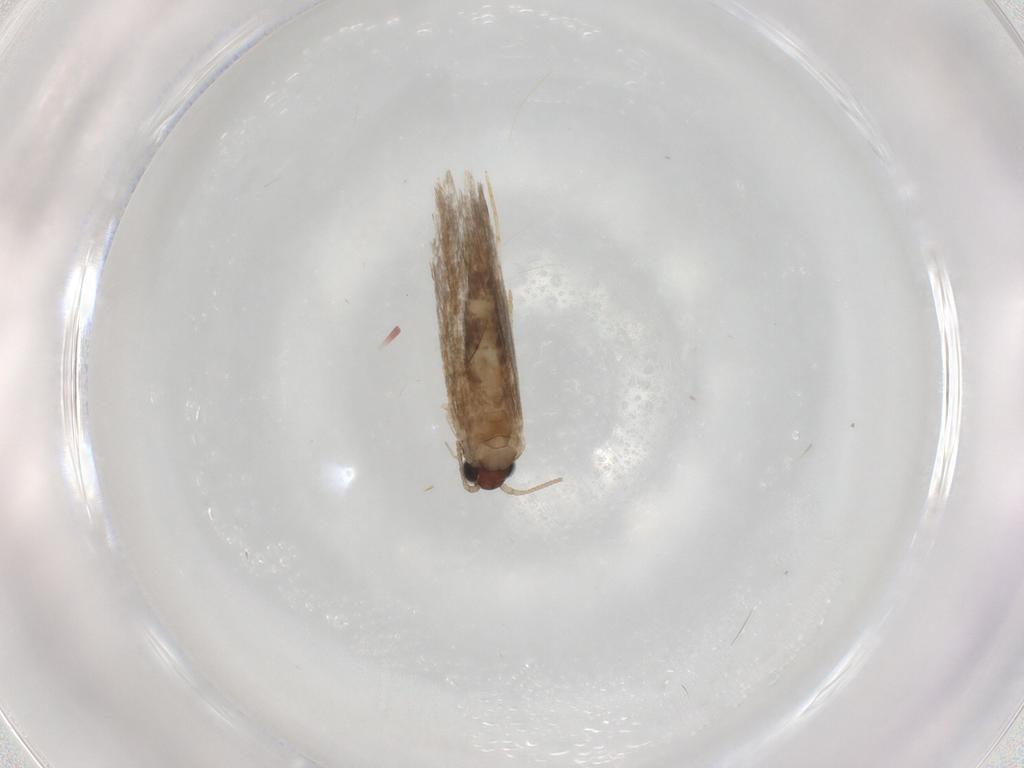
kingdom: Animalia
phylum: Arthropoda
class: Insecta
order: Lepidoptera
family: Tineidae
